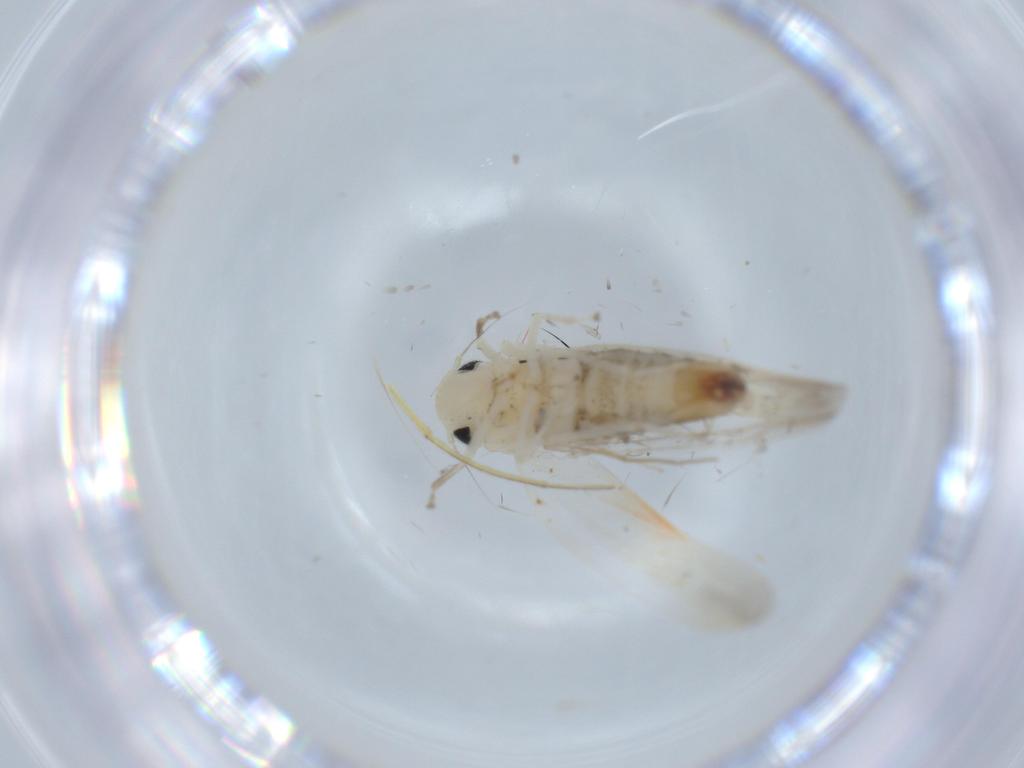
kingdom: Animalia
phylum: Arthropoda
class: Insecta
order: Hemiptera
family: Cicadellidae
